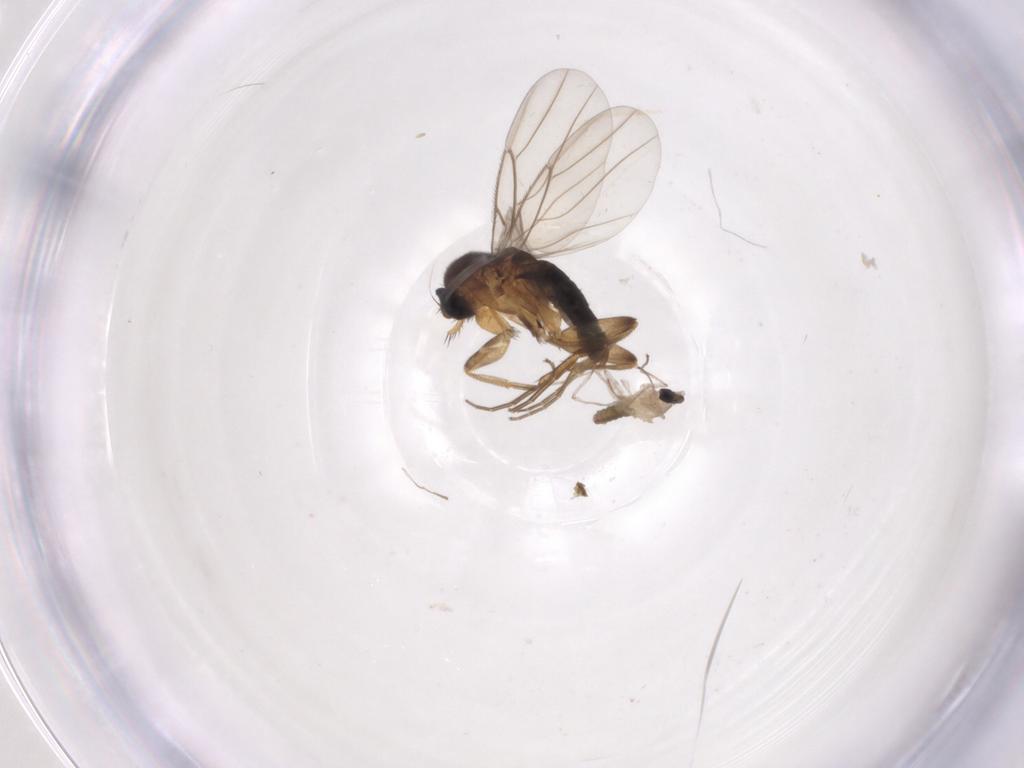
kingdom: Animalia
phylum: Arthropoda
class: Insecta
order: Diptera
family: Phoridae
